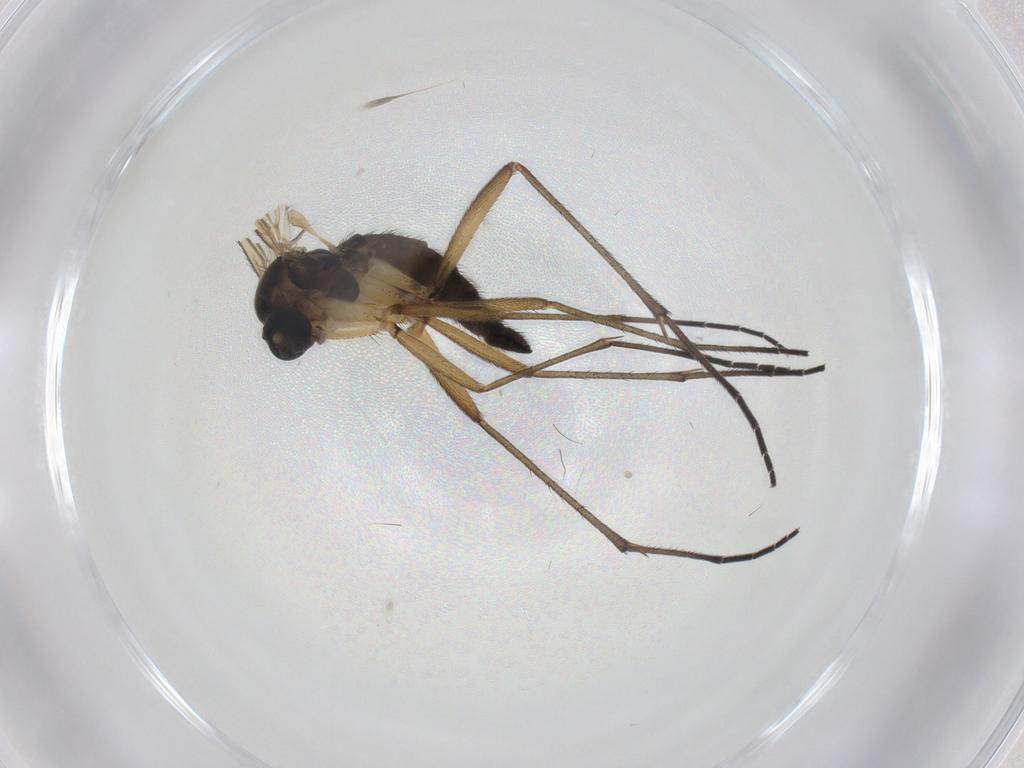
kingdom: Animalia
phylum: Arthropoda
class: Insecta
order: Diptera
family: Sciaridae
